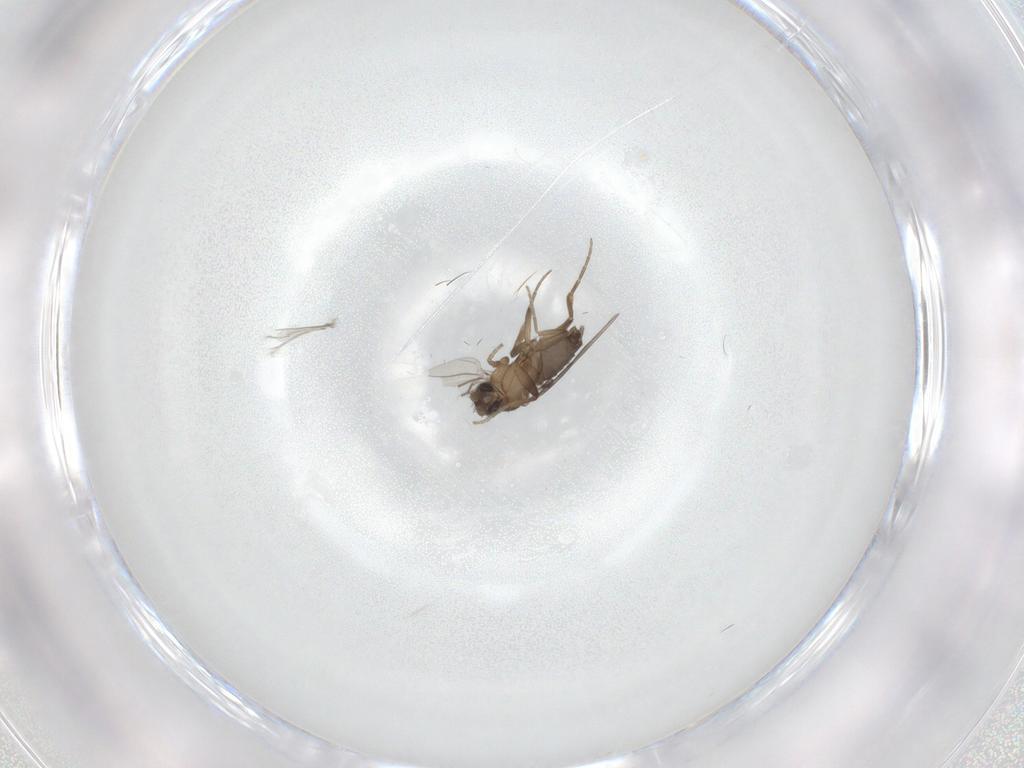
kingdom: Animalia
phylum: Arthropoda
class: Insecta
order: Diptera
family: Cecidomyiidae
